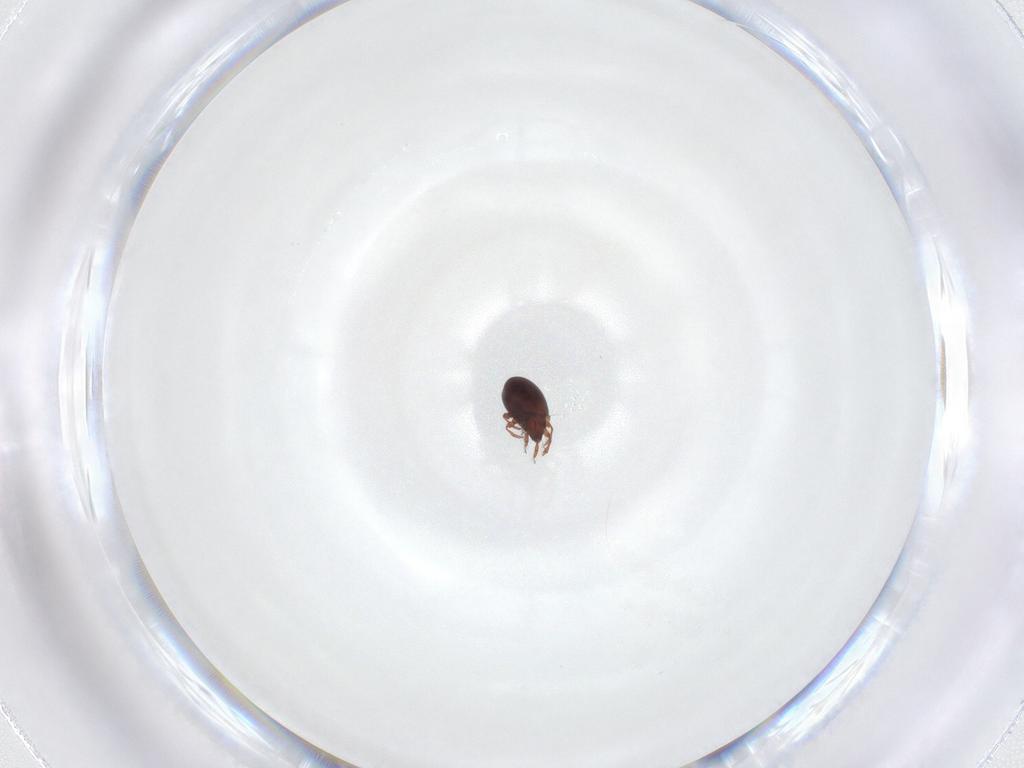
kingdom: Animalia
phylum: Arthropoda
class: Arachnida
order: Sarcoptiformes
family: Ceratozetidae
